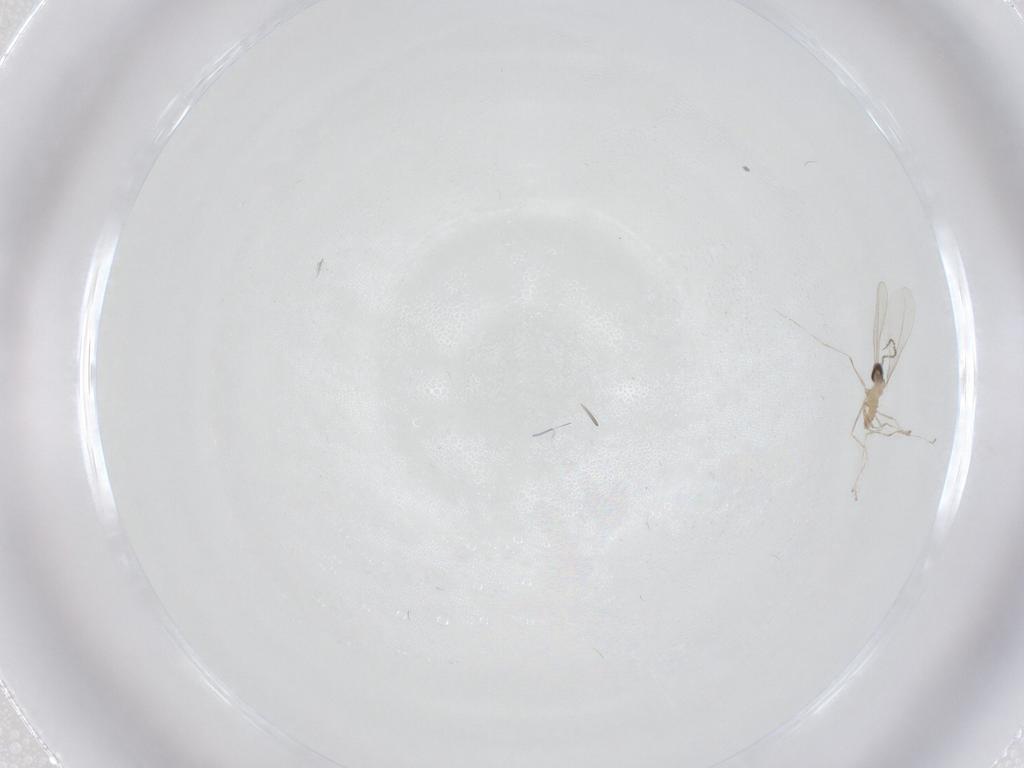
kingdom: Animalia
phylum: Arthropoda
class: Insecta
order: Diptera
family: Cecidomyiidae
